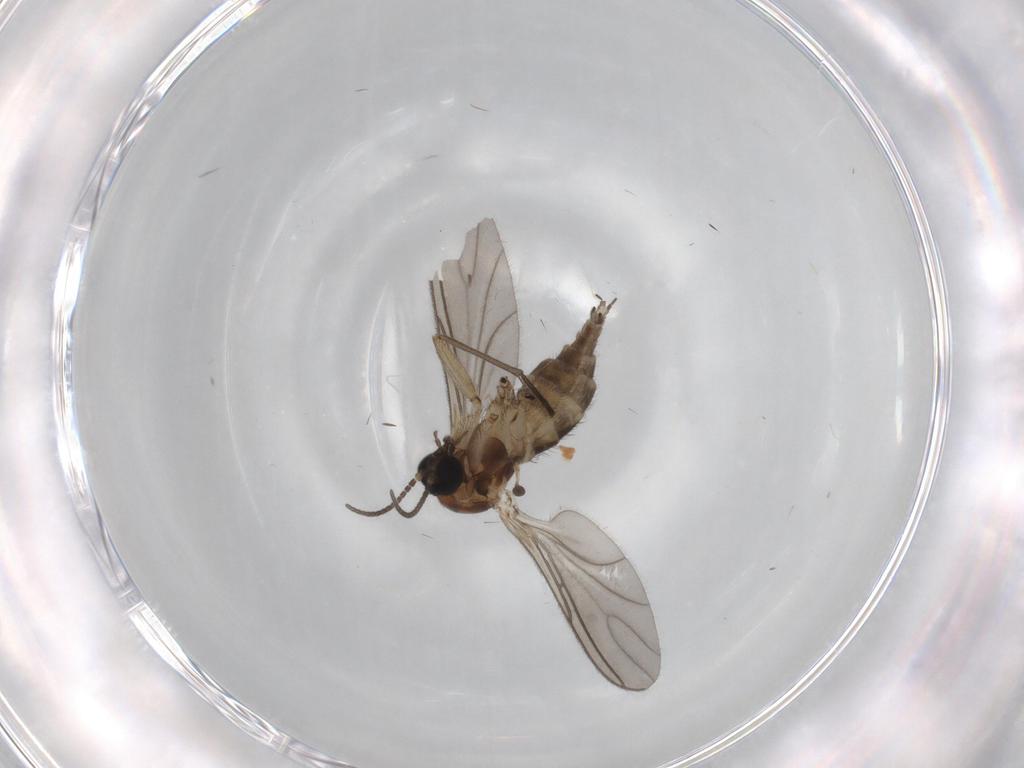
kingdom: Animalia
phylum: Arthropoda
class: Insecta
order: Diptera
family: Sciaridae
